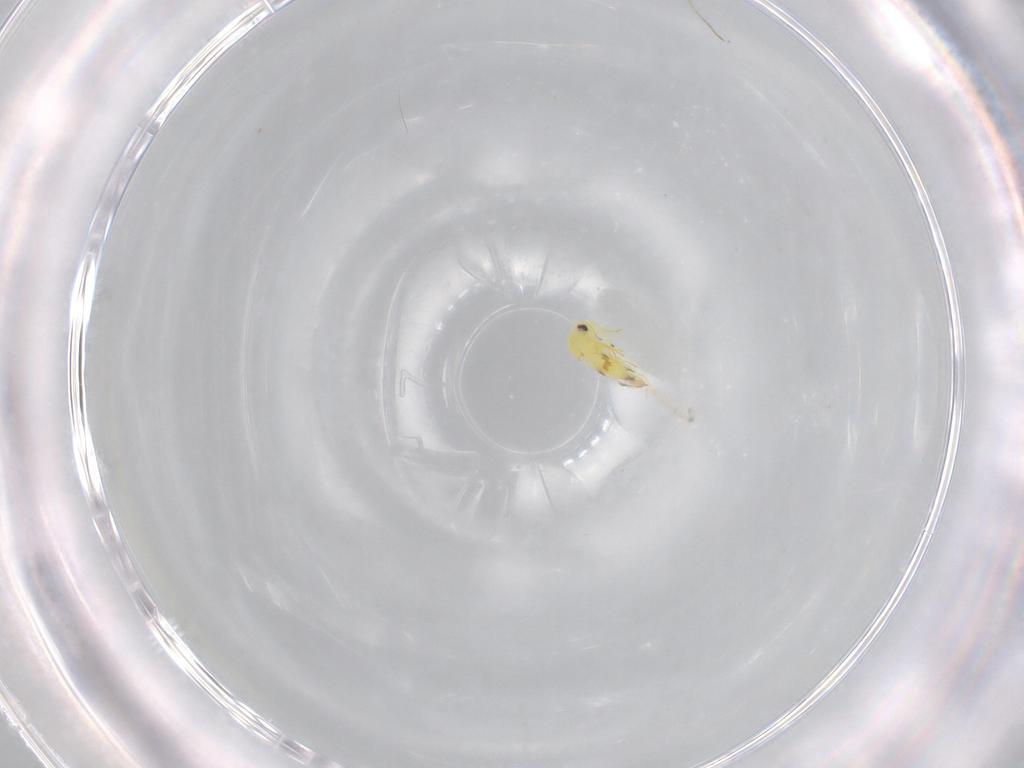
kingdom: Animalia
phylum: Arthropoda
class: Insecta
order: Hemiptera
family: Aleyrodidae
